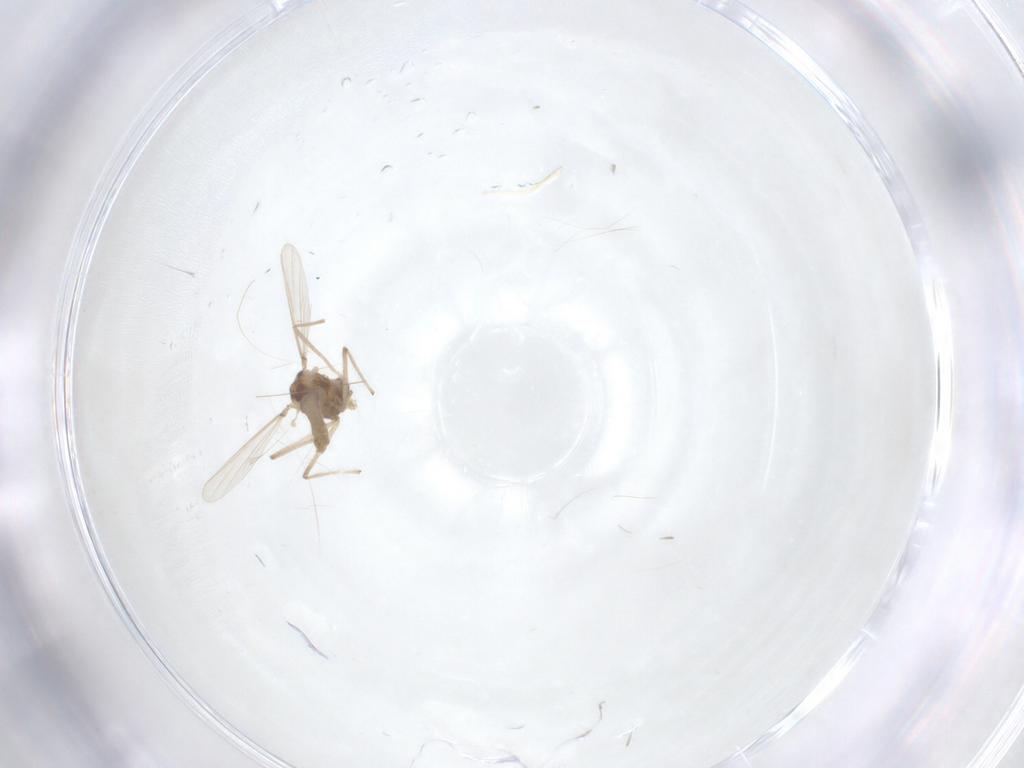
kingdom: Animalia
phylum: Arthropoda
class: Insecta
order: Diptera
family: Chironomidae
